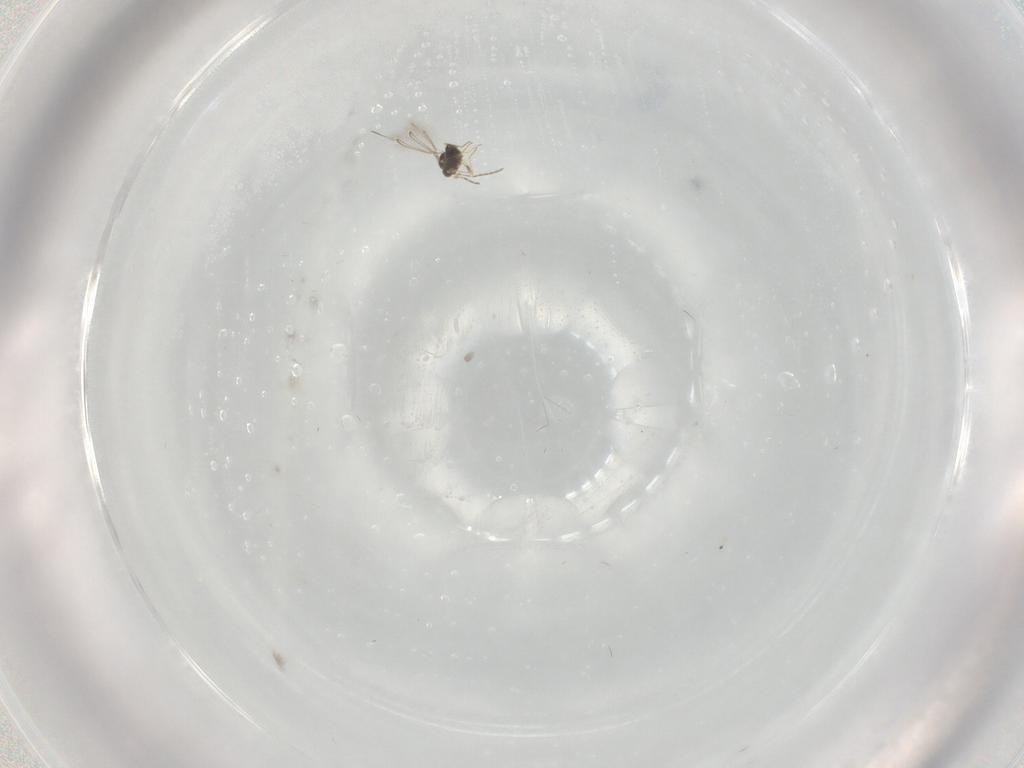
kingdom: Animalia
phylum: Arthropoda
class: Insecta
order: Hymenoptera
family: Mymaridae
